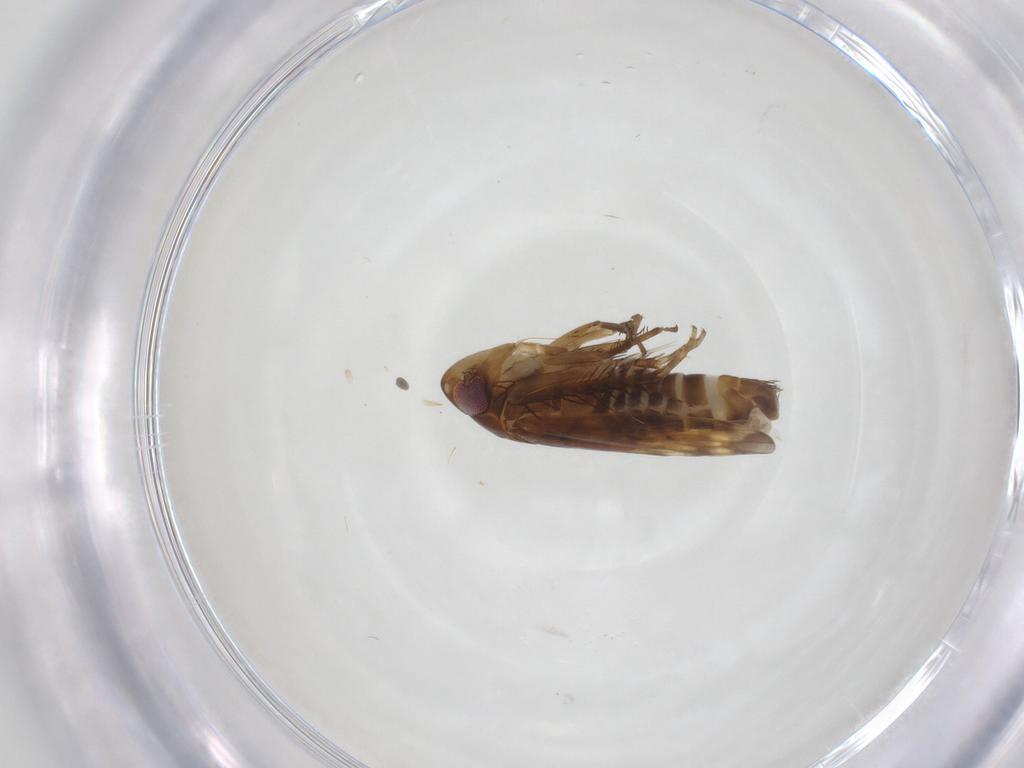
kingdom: Animalia
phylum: Arthropoda
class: Insecta
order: Hemiptera
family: Cicadellidae
